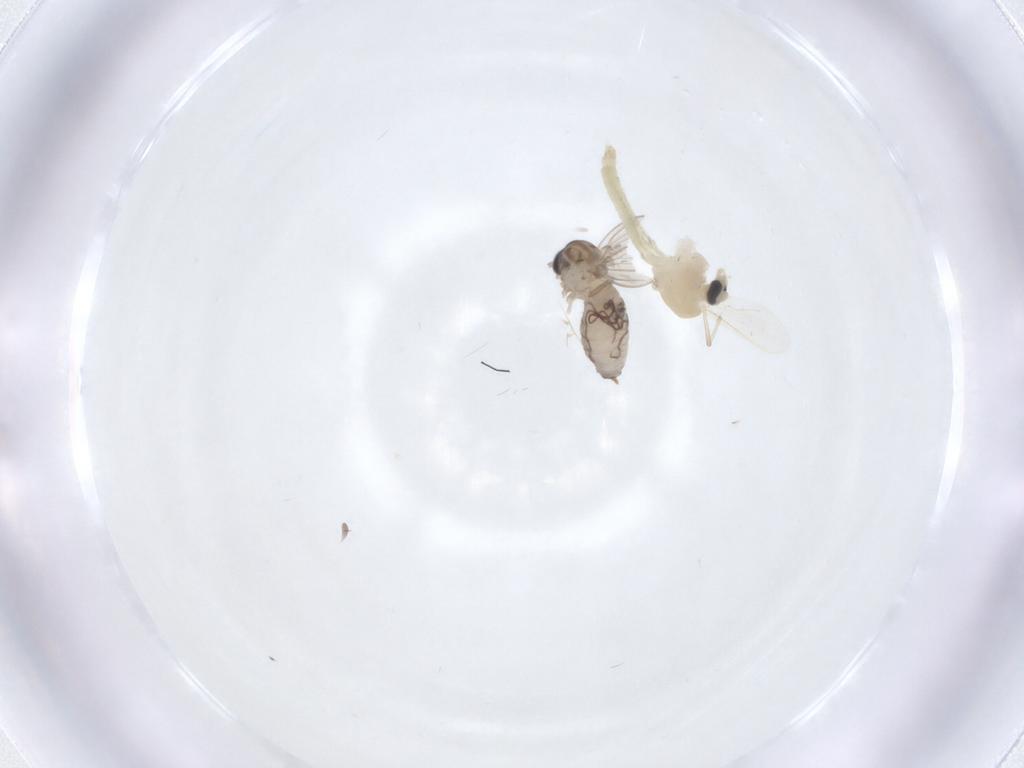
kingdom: Animalia
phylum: Arthropoda
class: Insecta
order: Diptera
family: Psychodidae
